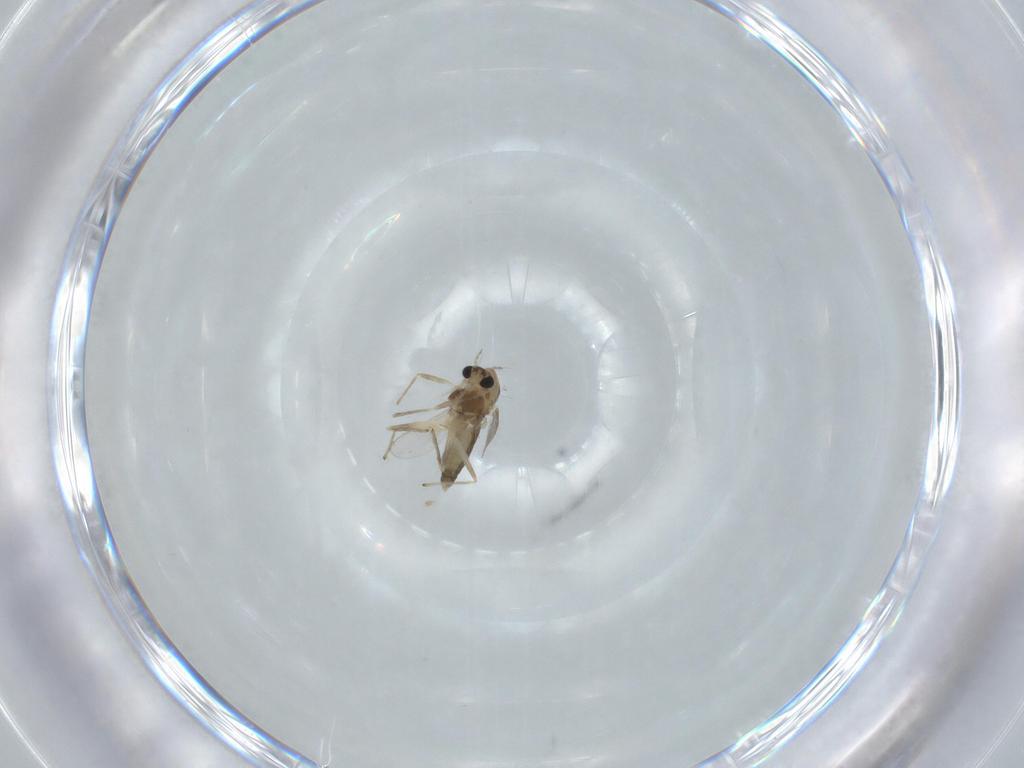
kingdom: Animalia
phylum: Arthropoda
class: Insecta
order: Diptera
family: Chironomidae
